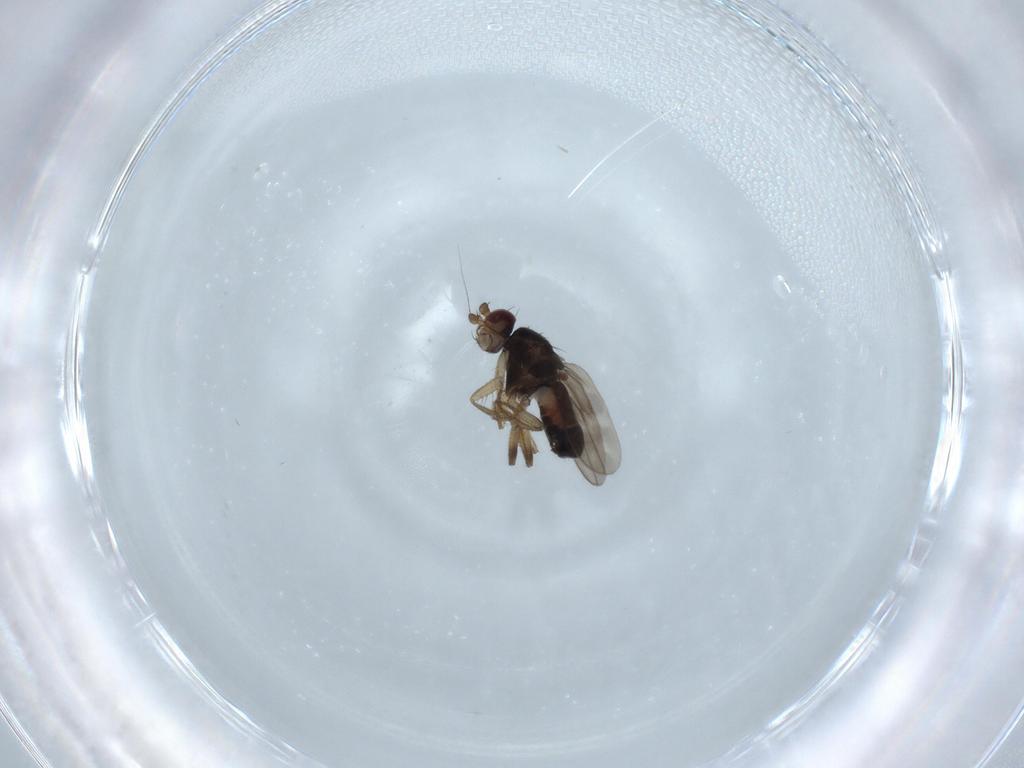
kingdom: Animalia
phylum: Arthropoda
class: Insecta
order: Diptera
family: Sphaeroceridae
